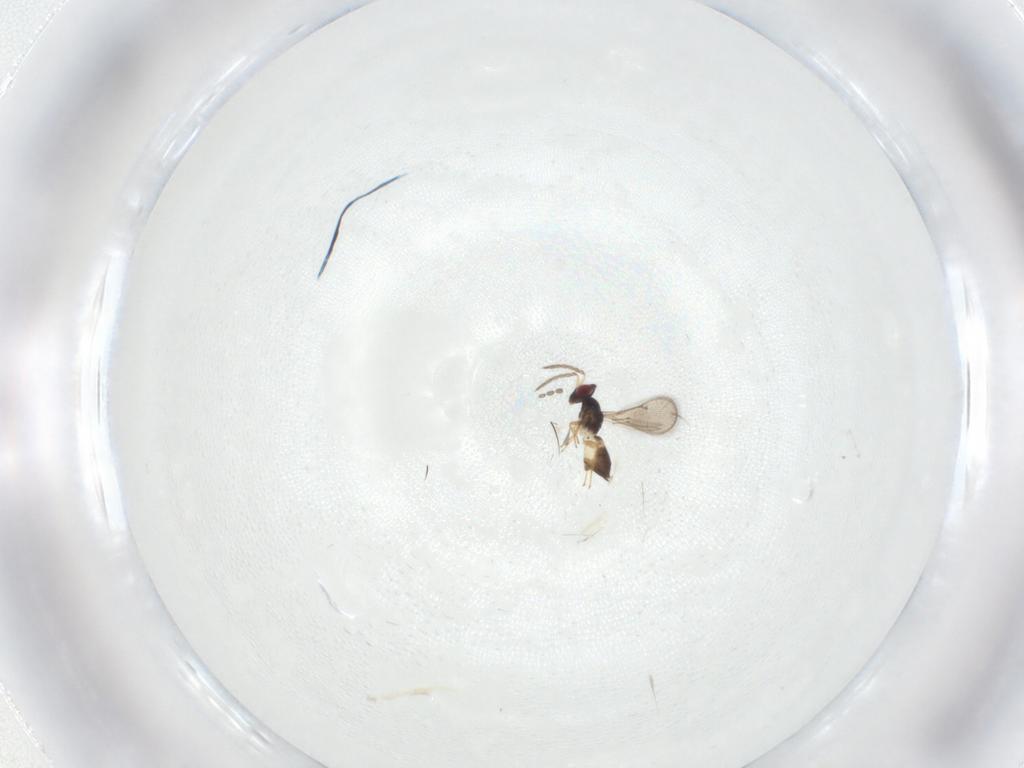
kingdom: Animalia
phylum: Arthropoda
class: Insecta
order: Hymenoptera
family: Eulophidae
